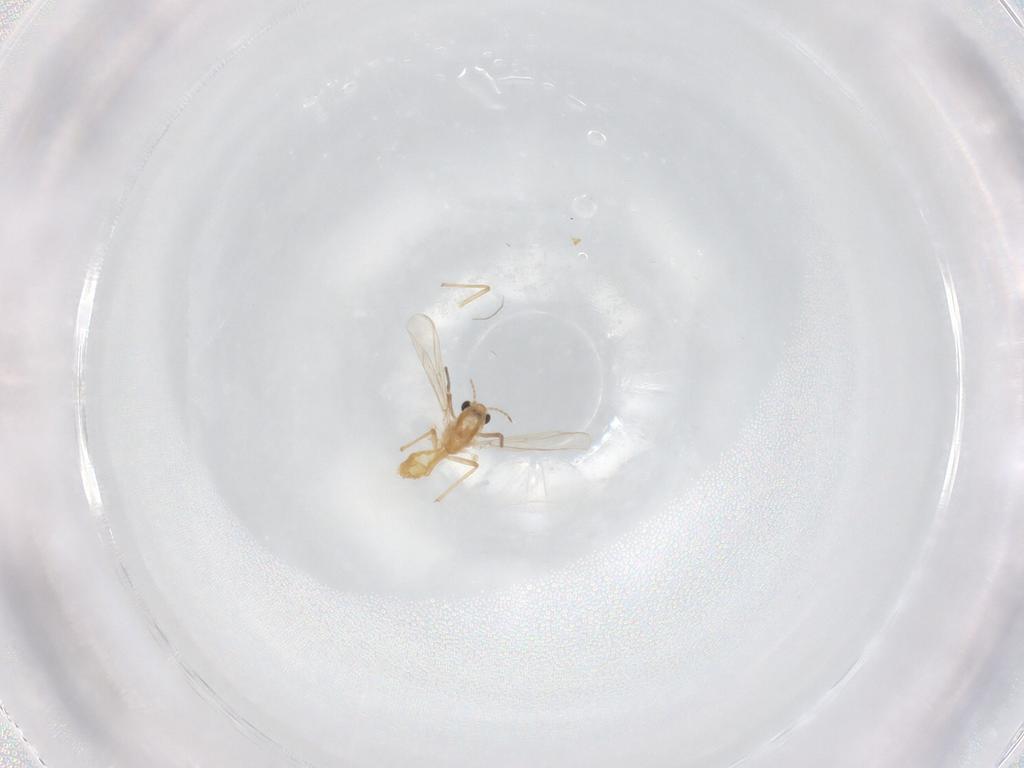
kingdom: Animalia
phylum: Arthropoda
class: Insecta
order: Diptera
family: Chironomidae
